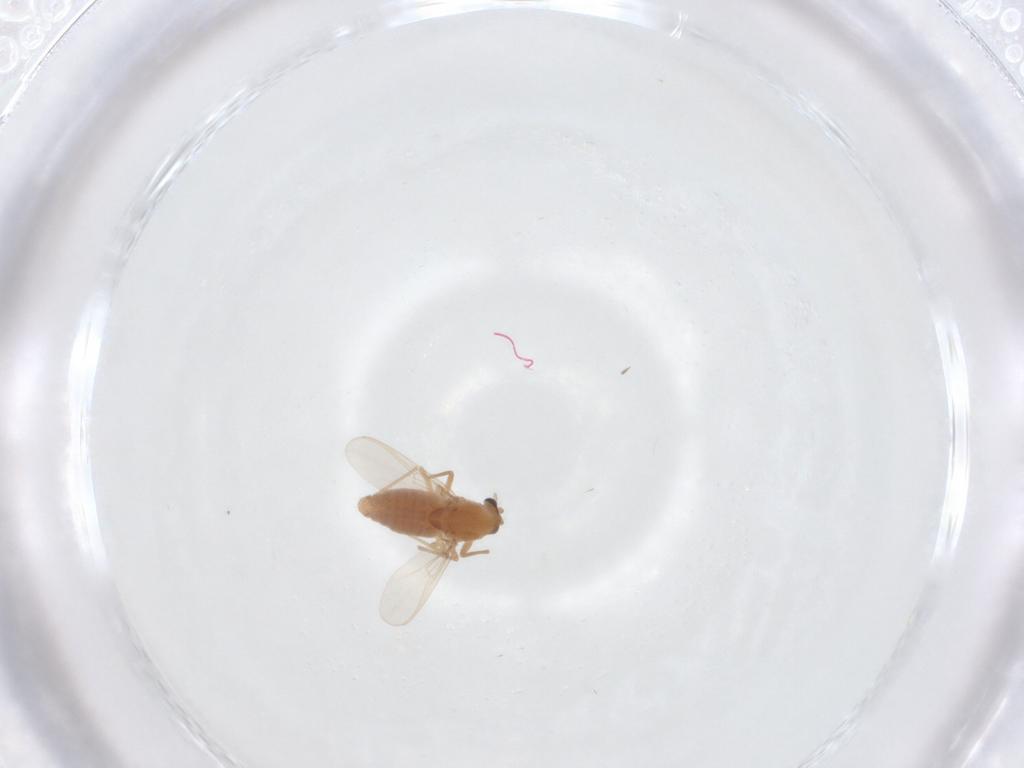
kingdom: Animalia
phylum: Arthropoda
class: Insecta
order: Diptera
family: Chironomidae
